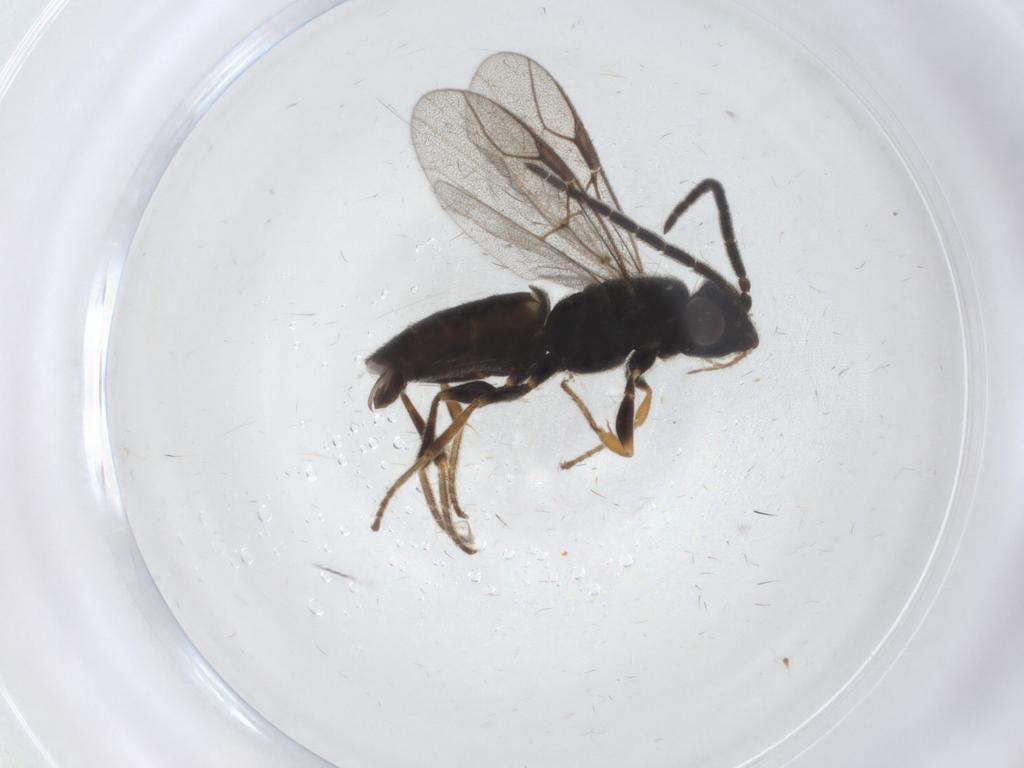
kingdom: Animalia
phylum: Arthropoda
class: Insecta
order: Hymenoptera
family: Dryinidae
